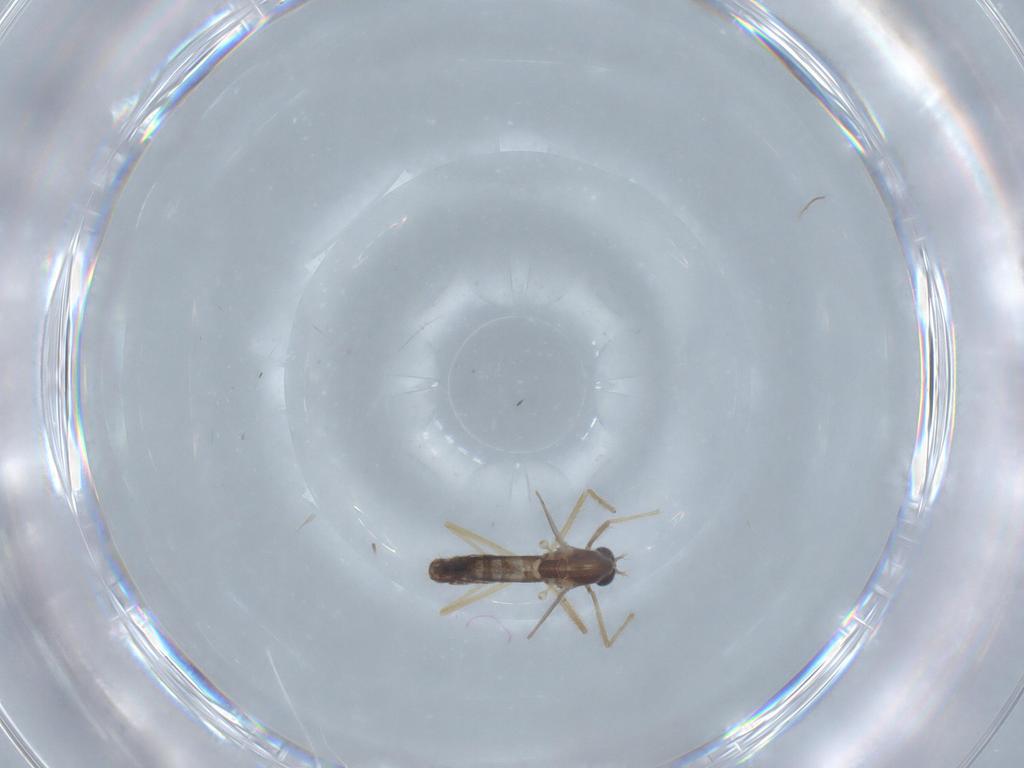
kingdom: Animalia
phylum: Arthropoda
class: Insecta
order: Diptera
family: Chironomidae
